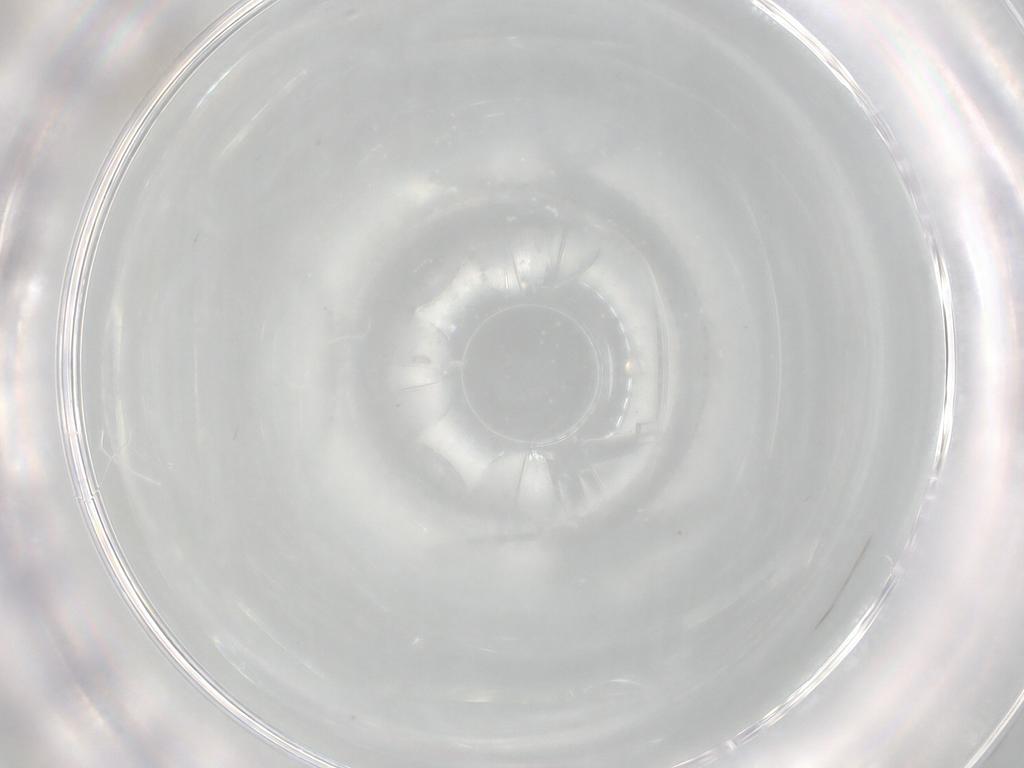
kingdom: Animalia
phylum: Arthropoda
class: Insecta
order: Diptera
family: Cecidomyiidae
